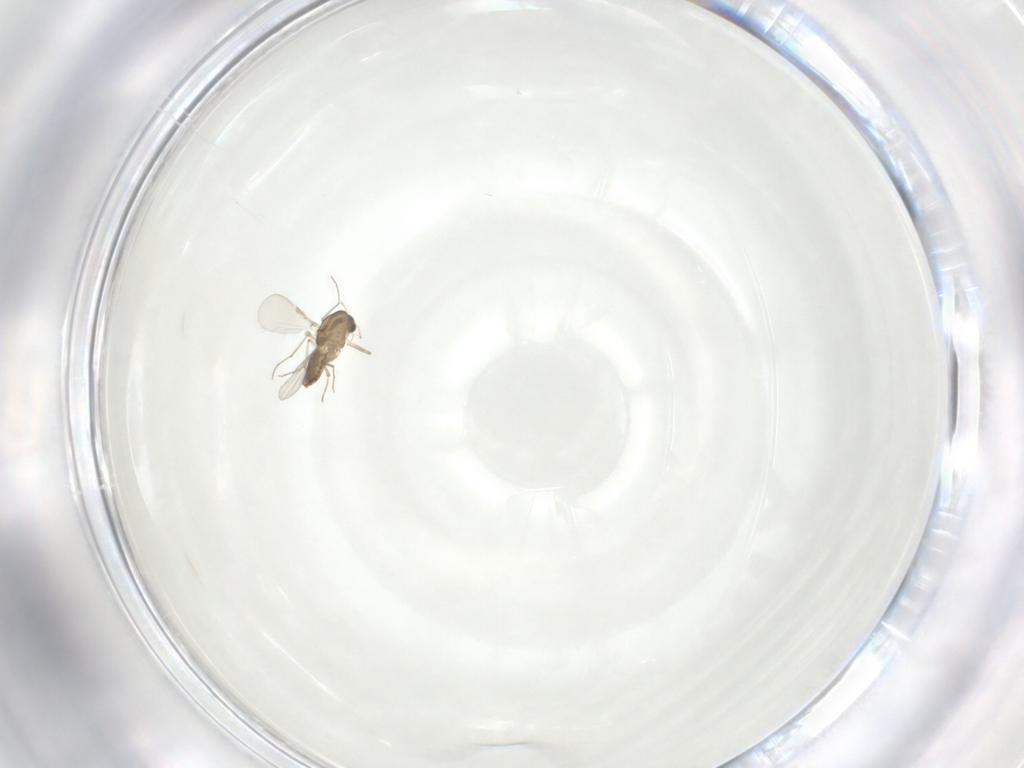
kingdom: Animalia
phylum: Arthropoda
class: Insecta
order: Diptera
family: Chironomidae
